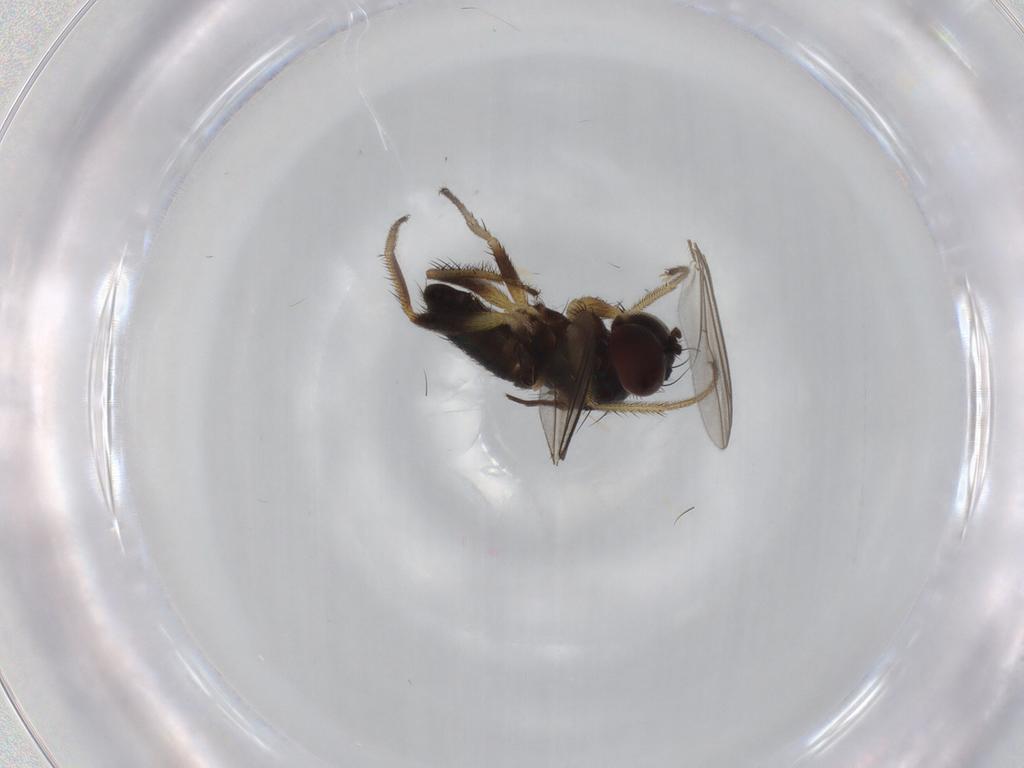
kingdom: Animalia
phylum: Arthropoda
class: Insecta
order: Diptera
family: Dolichopodidae
